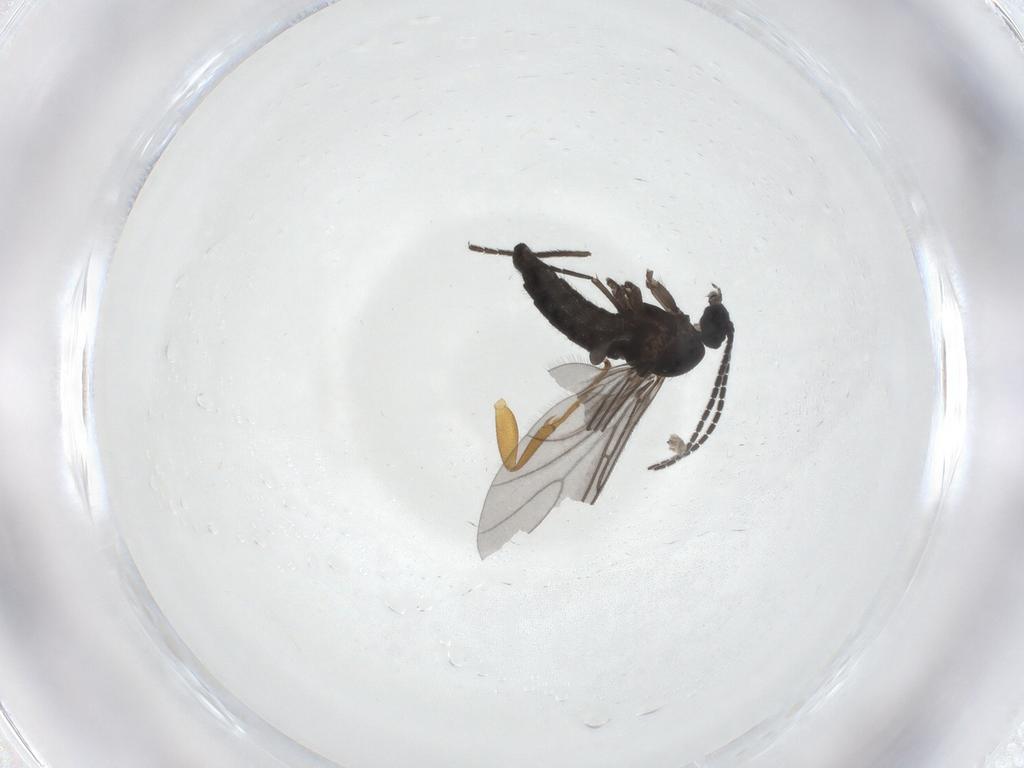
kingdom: Animalia
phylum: Arthropoda
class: Insecta
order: Diptera
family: Sciaridae
